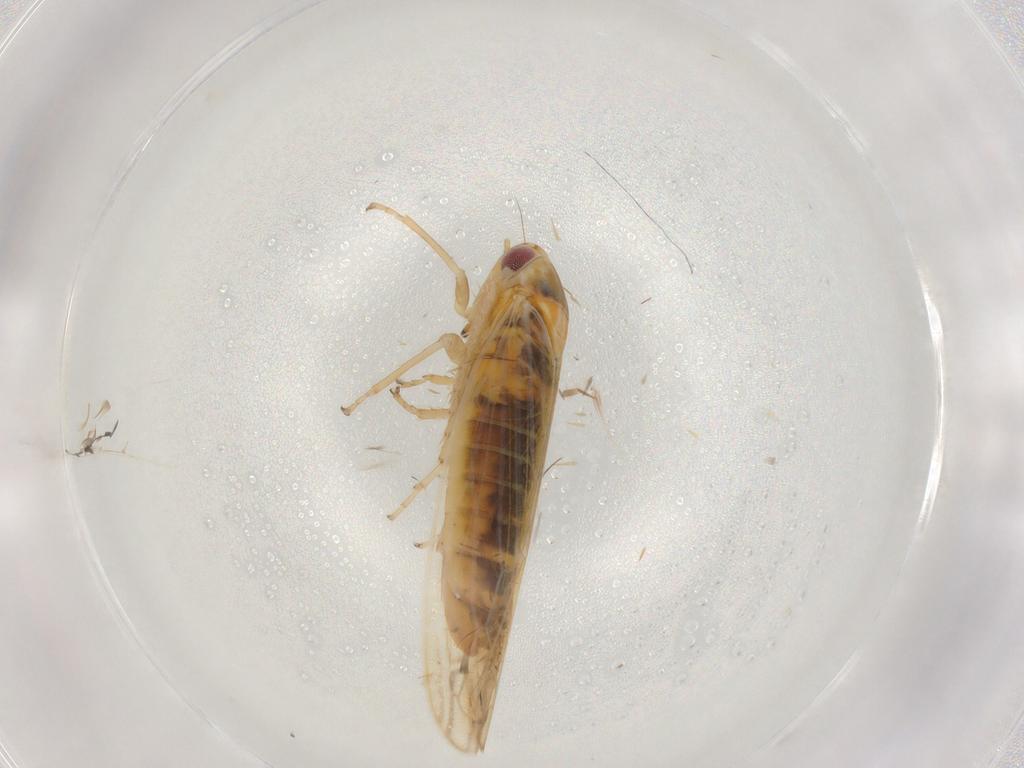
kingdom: Animalia
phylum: Arthropoda
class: Insecta
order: Hemiptera
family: Cicadellidae
